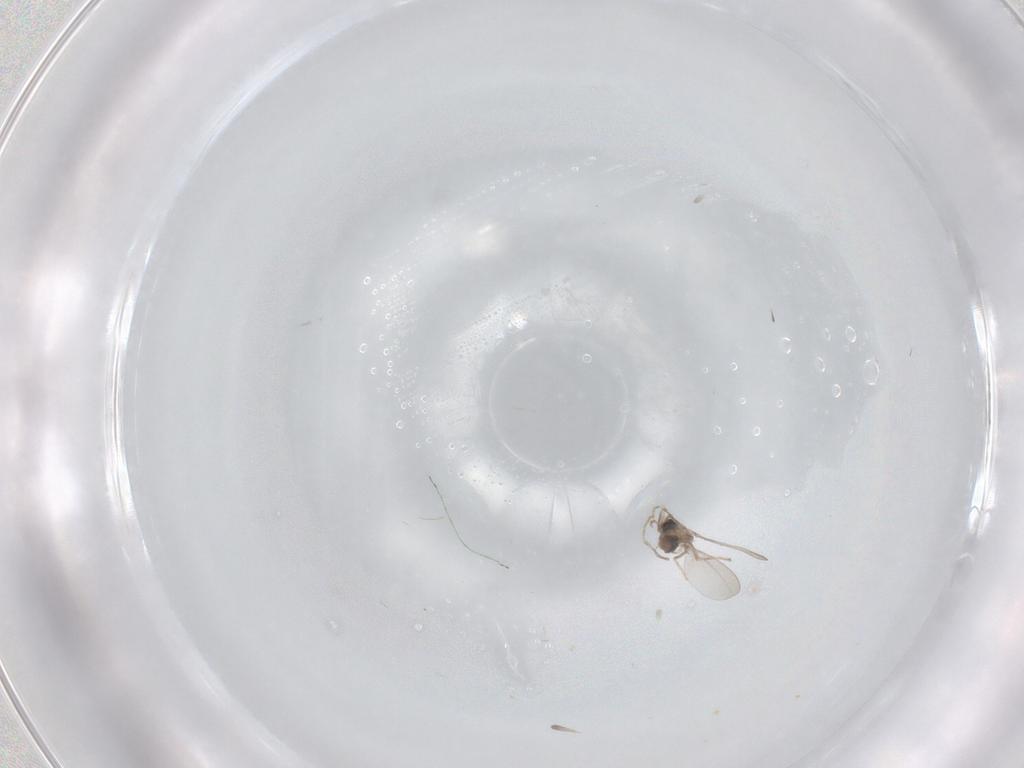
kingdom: Animalia
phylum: Arthropoda
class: Insecta
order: Diptera
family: Cecidomyiidae
